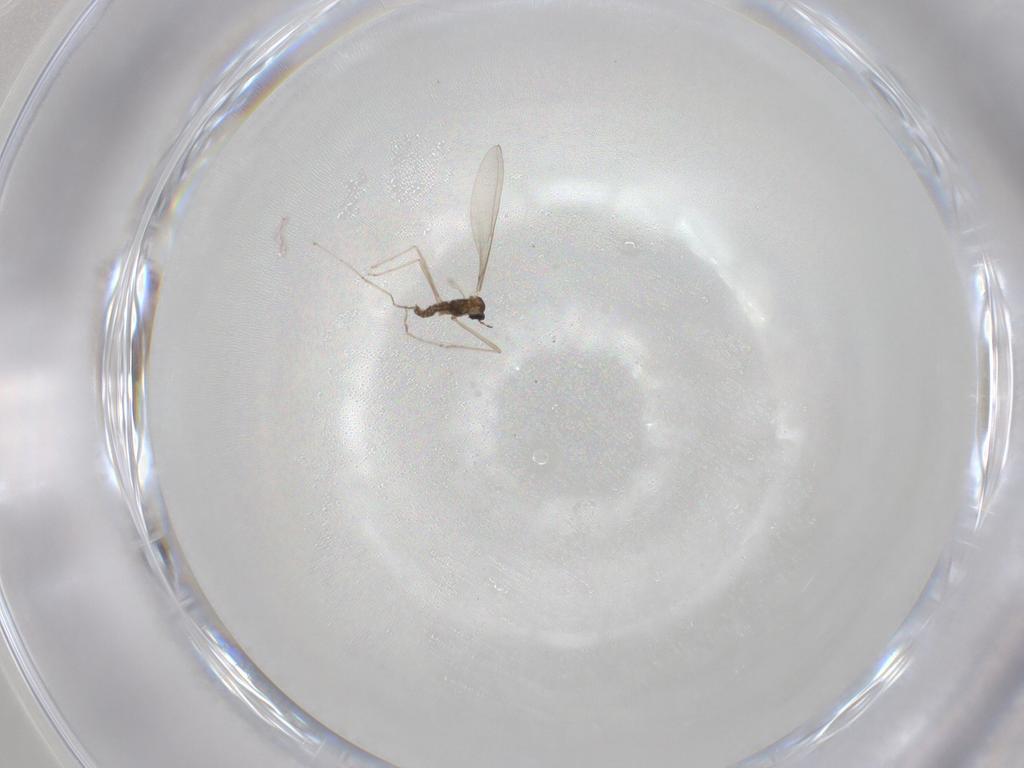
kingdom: Animalia
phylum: Arthropoda
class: Insecta
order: Diptera
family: Cecidomyiidae
